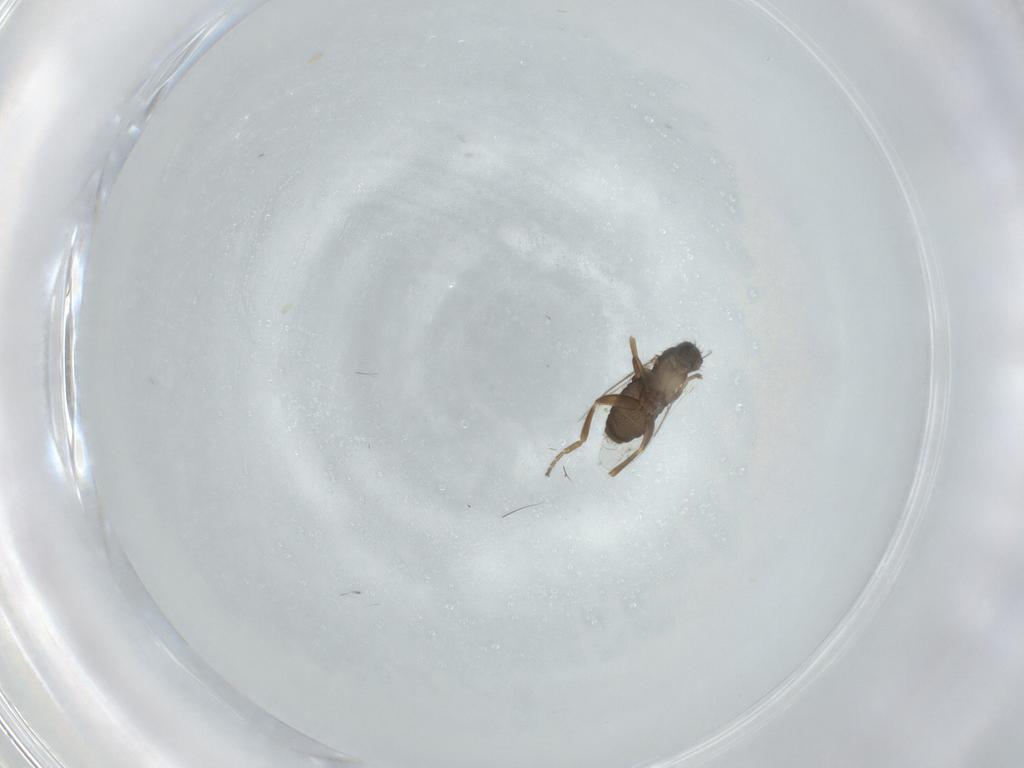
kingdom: Animalia
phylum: Arthropoda
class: Insecta
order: Diptera
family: Phoridae
